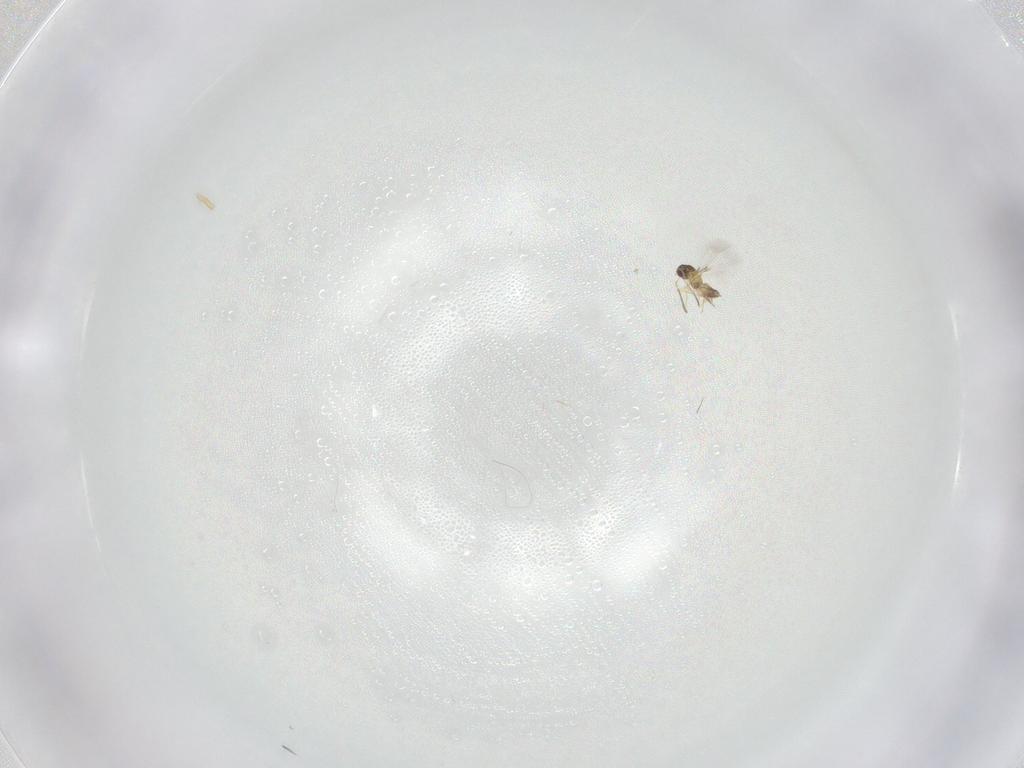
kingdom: Animalia
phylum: Arthropoda
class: Insecta
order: Hymenoptera
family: Mymaridae
